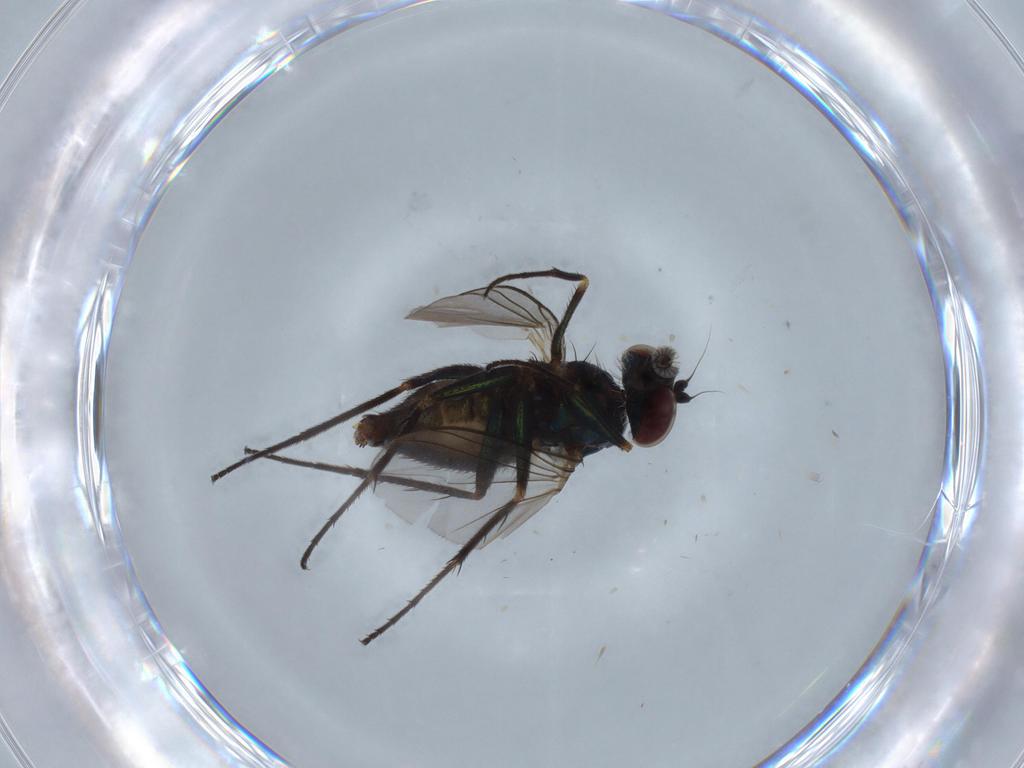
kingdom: Animalia
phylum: Arthropoda
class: Insecta
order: Diptera
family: Dolichopodidae
